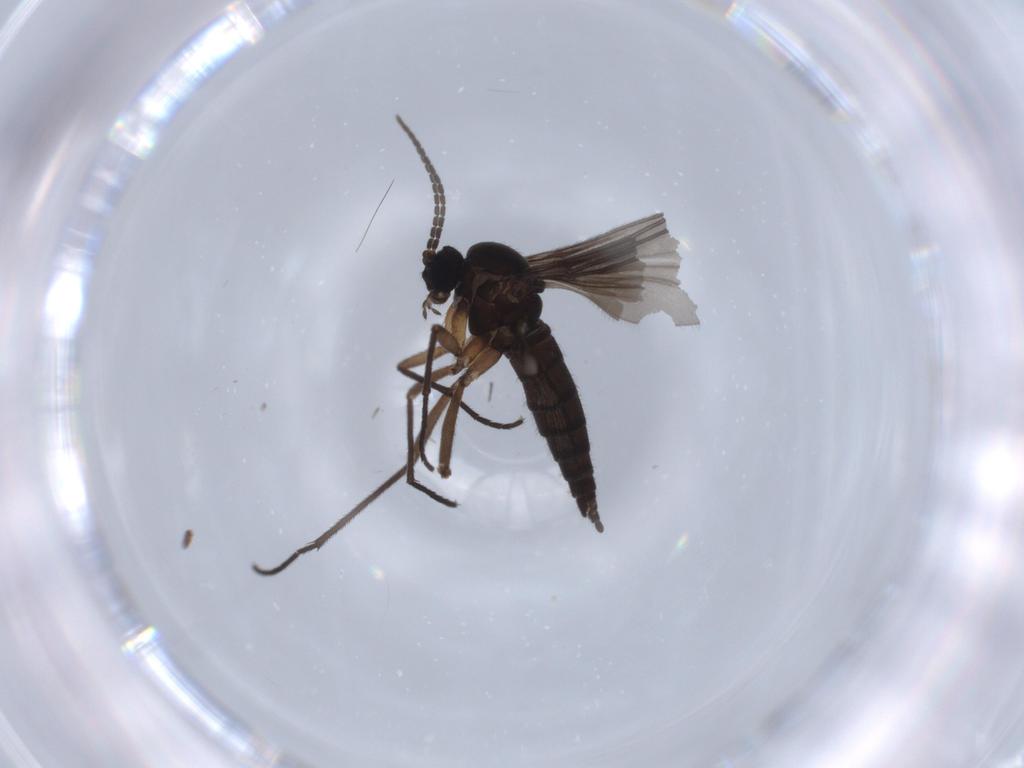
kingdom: Animalia
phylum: Arthropoda
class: Insecta
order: Diptera
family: Sciaridae
